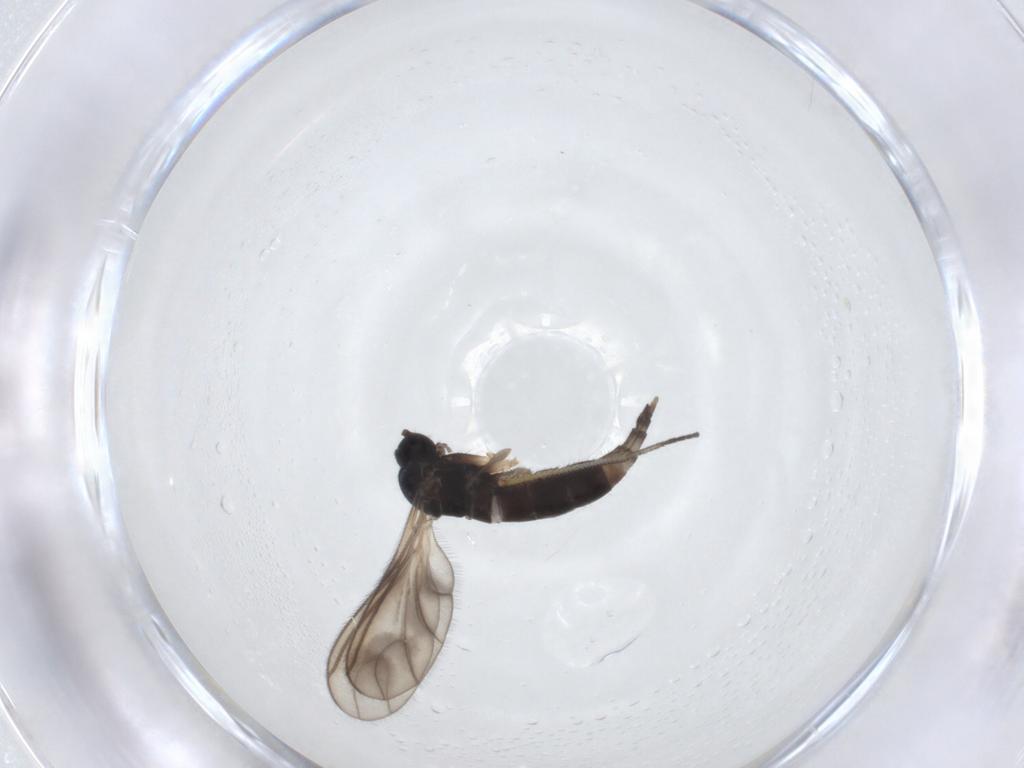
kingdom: Animalia
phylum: Arthropoda
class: Insecta
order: Diptera
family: Sciaridae
